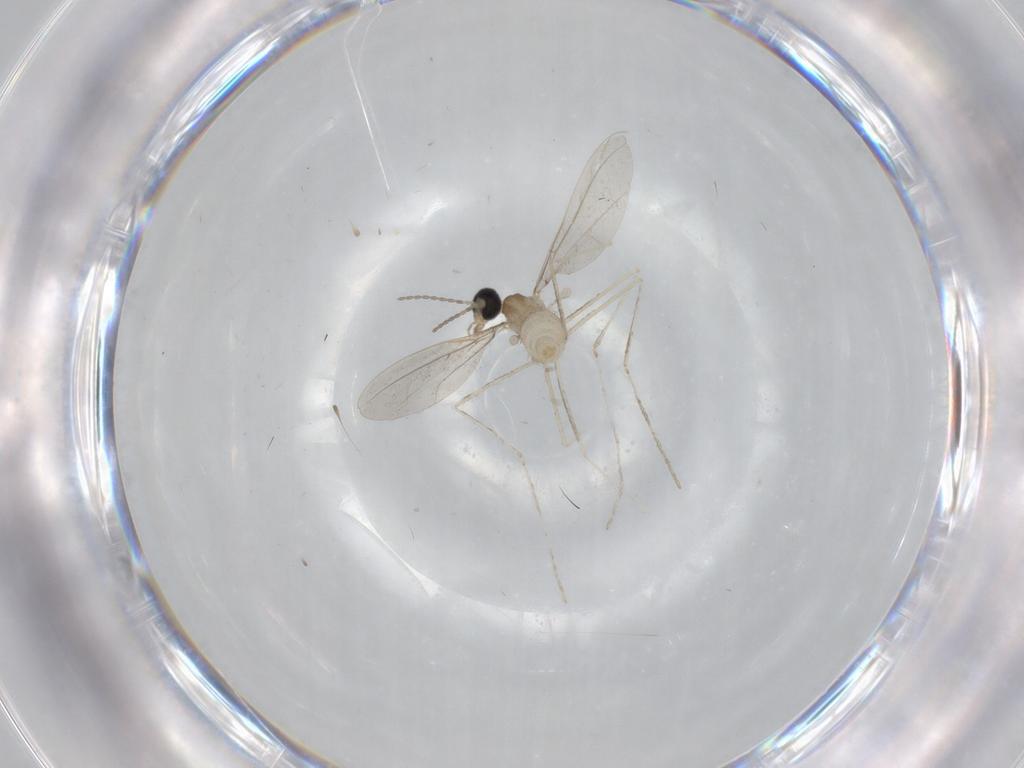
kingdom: Animalia
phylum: Arthropoda
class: Insecta
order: Diptera
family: Cecidomyiidae
